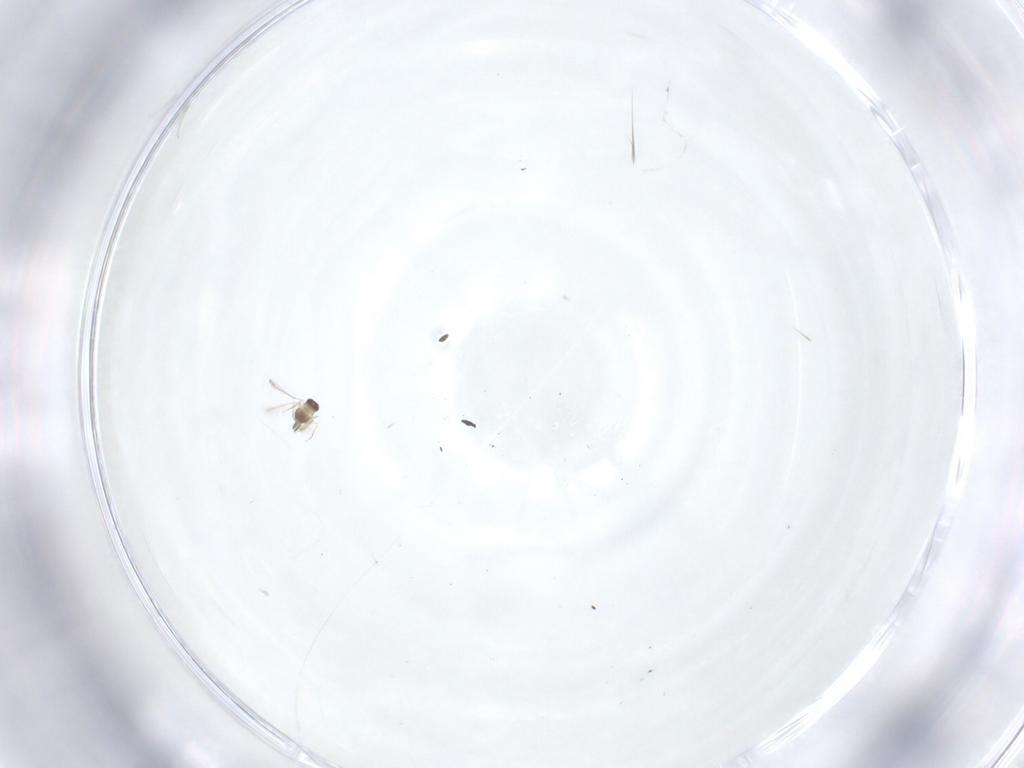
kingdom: Animalia
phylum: Arthropoda
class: Insecta
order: Hymenoptera
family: Mymaridae
